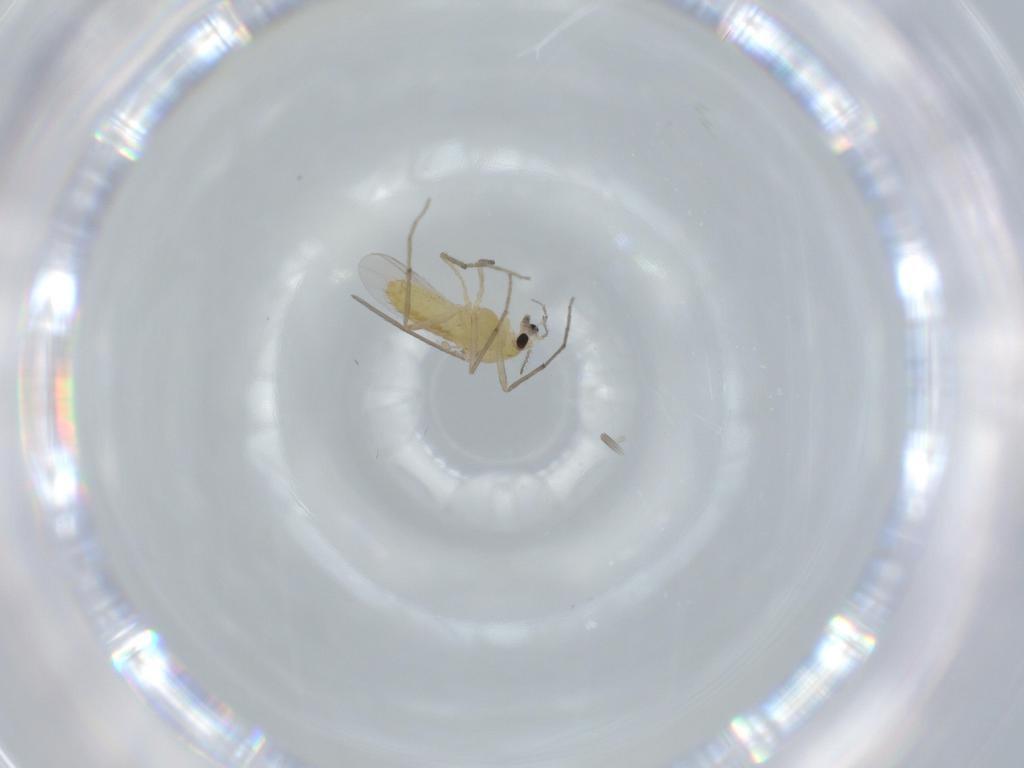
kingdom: Animalia
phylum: Arthropoda
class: Insecta
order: Diptera
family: Chironomidae
